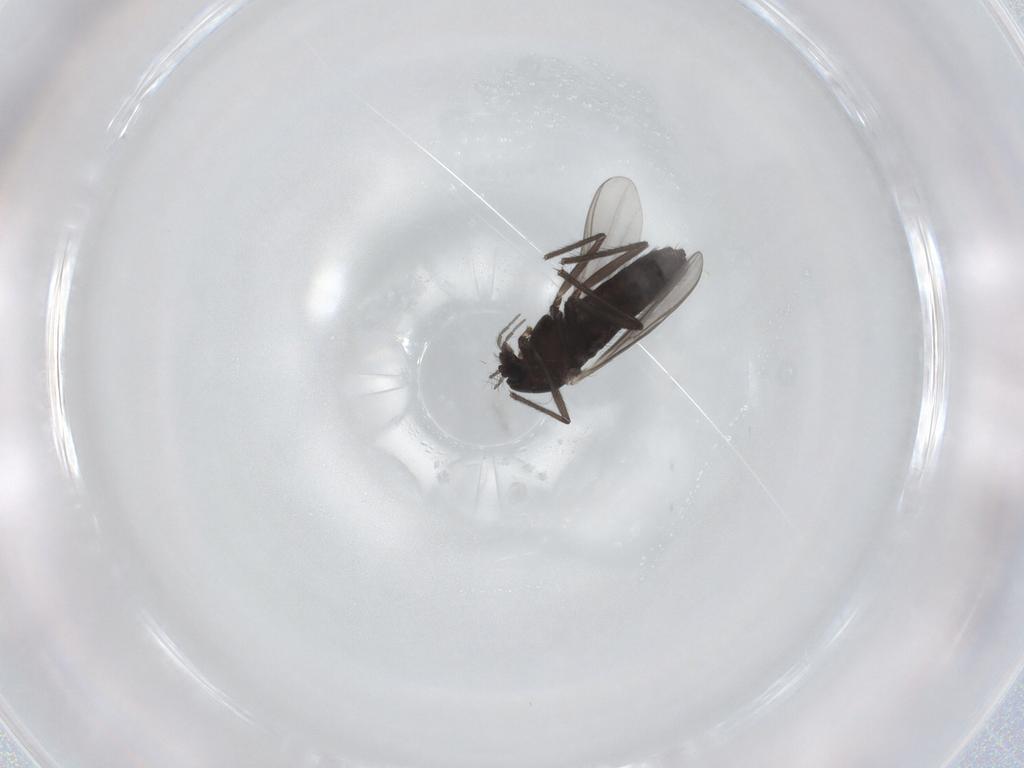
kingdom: Animalia
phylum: Arthropoda
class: Insecta
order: Diptera
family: Chironomidae
